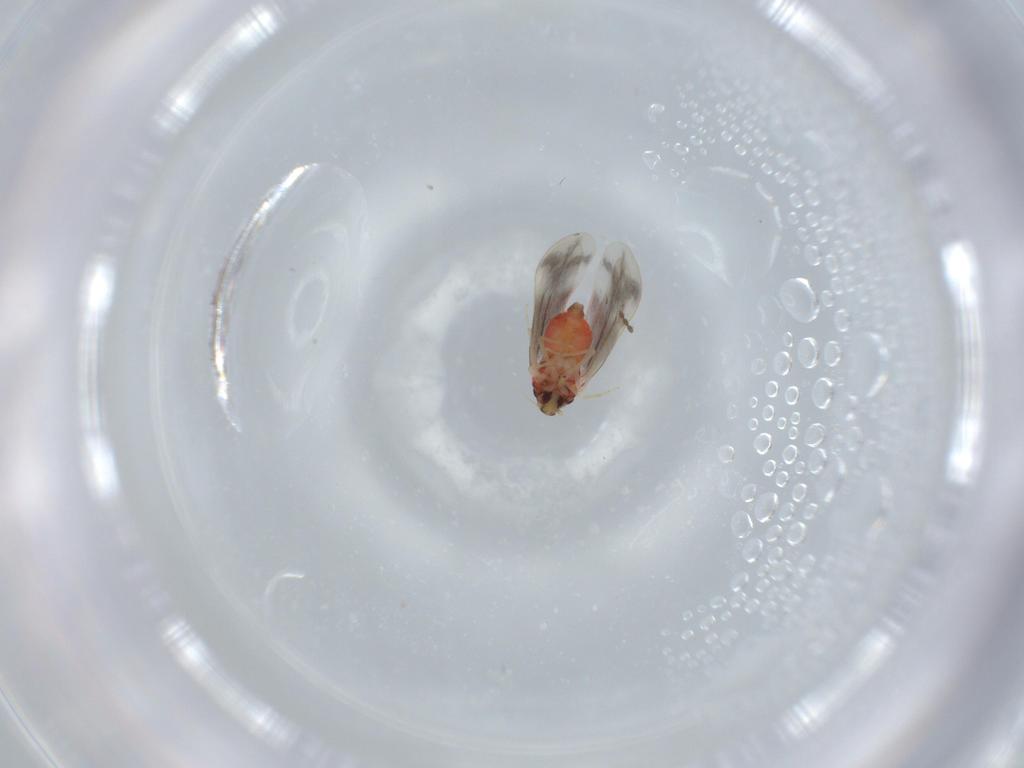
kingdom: Animalia
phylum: Arthropoda
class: Insecta
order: Hemiptera
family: Aleyrodidae
